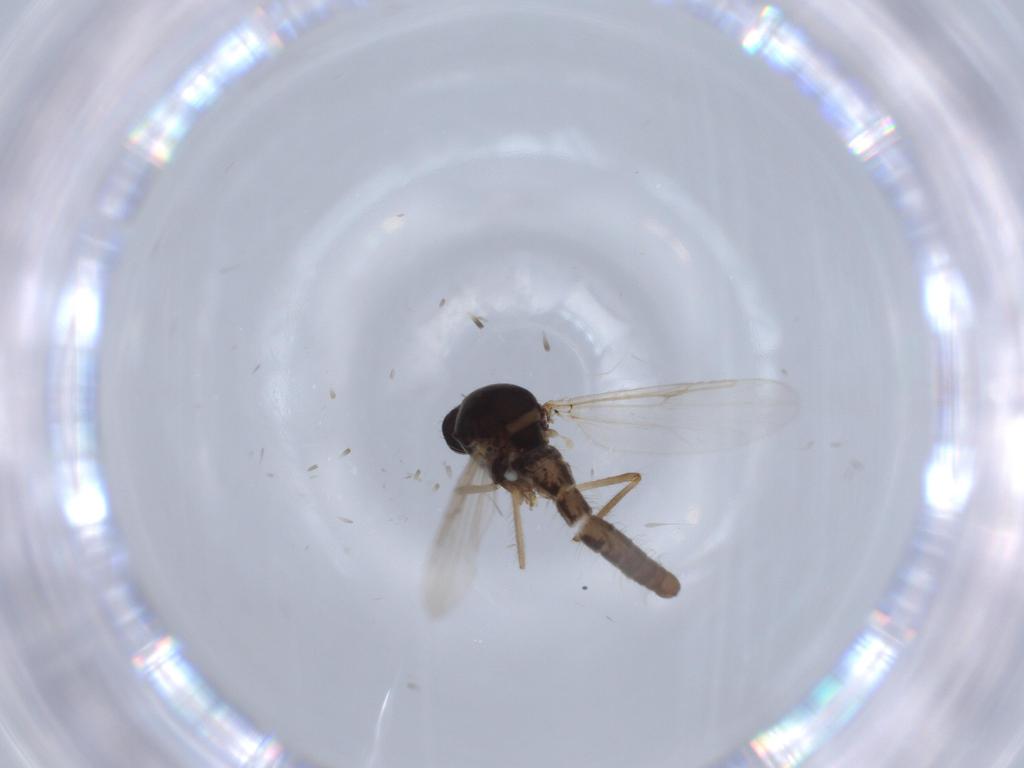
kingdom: Animalia
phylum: Arthropoda
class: Insecta
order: Diptera
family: Ceratopogonidae
